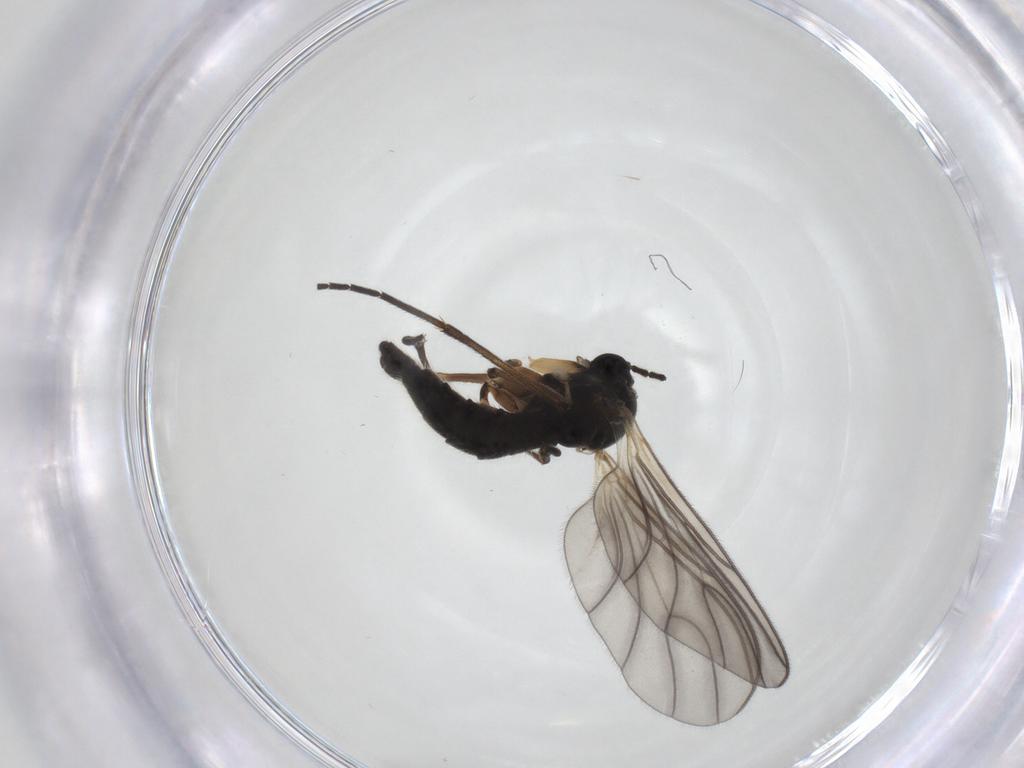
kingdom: Animalia
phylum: Arthropoda
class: Insecta
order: Diptera
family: Sciaridae
